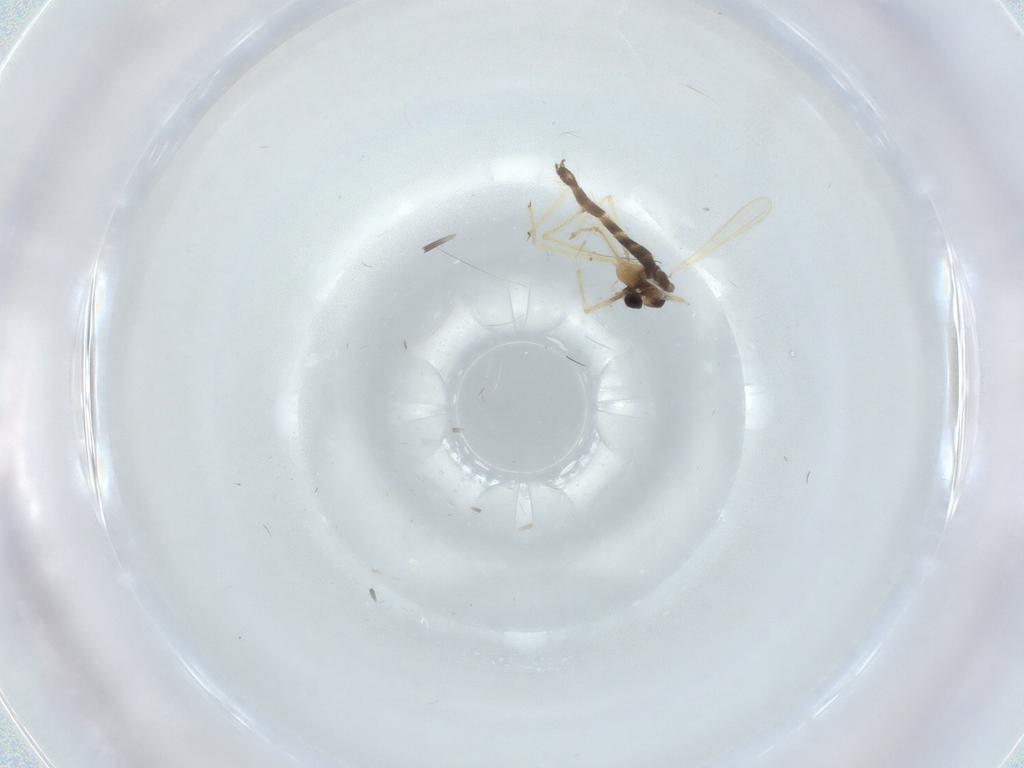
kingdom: Animalia
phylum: Arthropoda
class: Insecta
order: Diptera
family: Chironomidae
